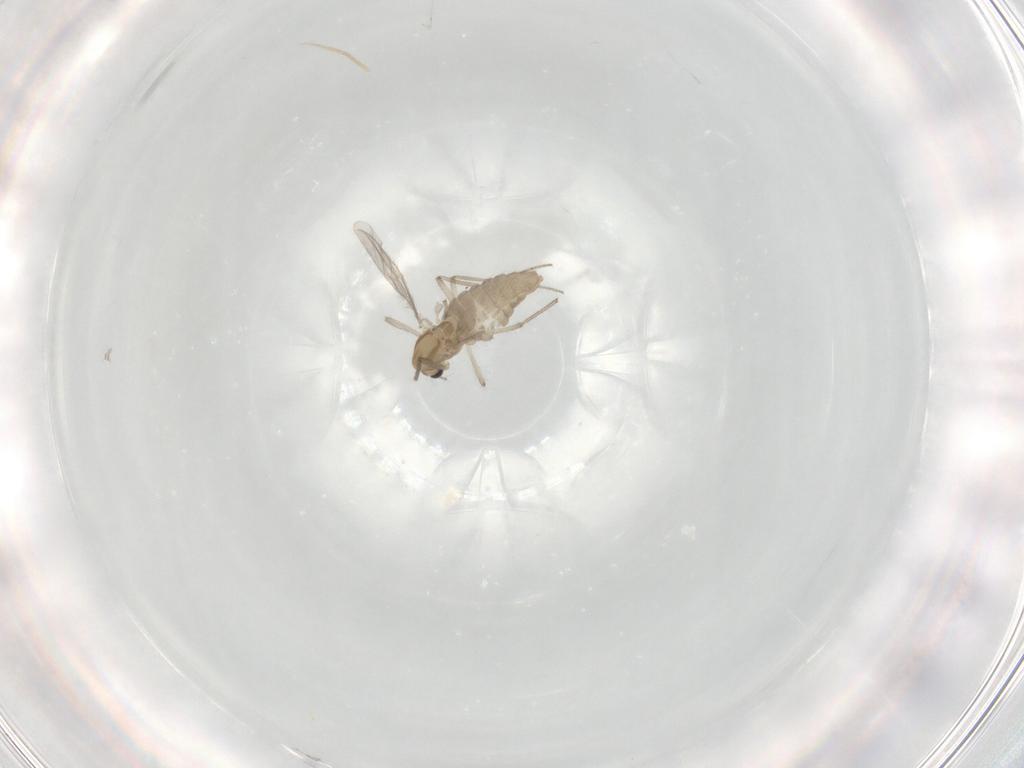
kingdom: Animalia
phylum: Arthropoda
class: Insecta
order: Diptera
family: Chironomidae
